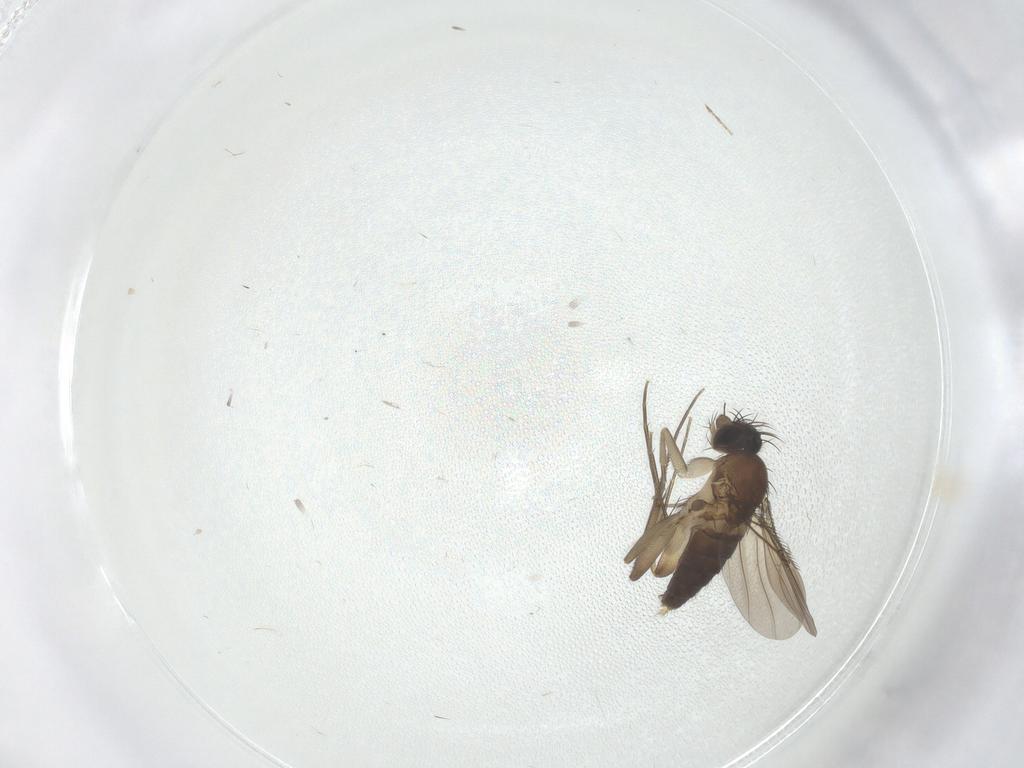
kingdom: Animalia
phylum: Arthropoda
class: Insecta
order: Diptera
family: Phoridae
